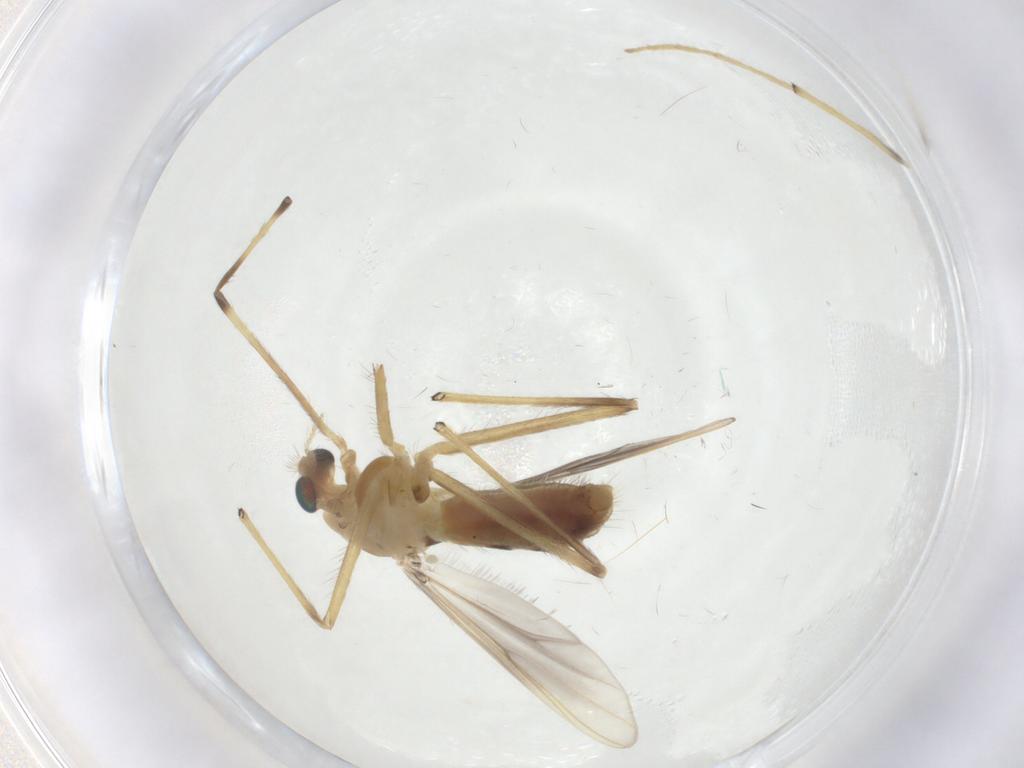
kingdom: Animalia
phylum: Arthropoda
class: Insecta
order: Diptera
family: Chironomidae
